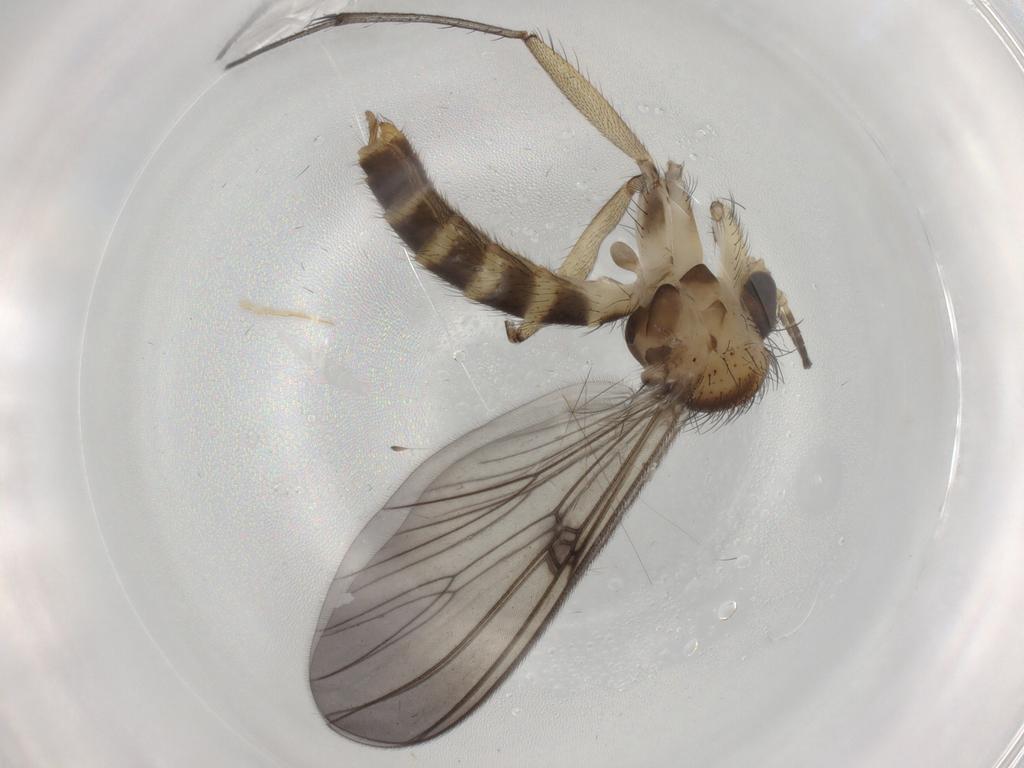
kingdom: Animalia
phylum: Arthropoda
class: Insecta
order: Diptera
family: Mycetophilidae
